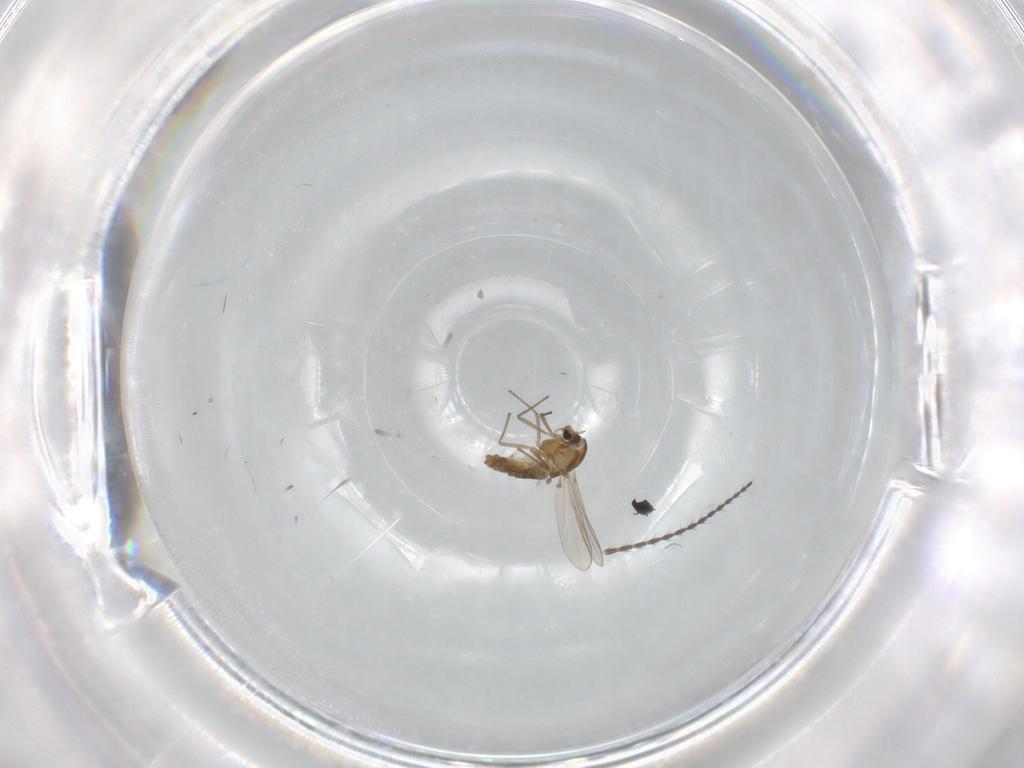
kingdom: Animalia
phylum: Arthropoda
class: Insecta
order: Diptera
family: Limoniidae
